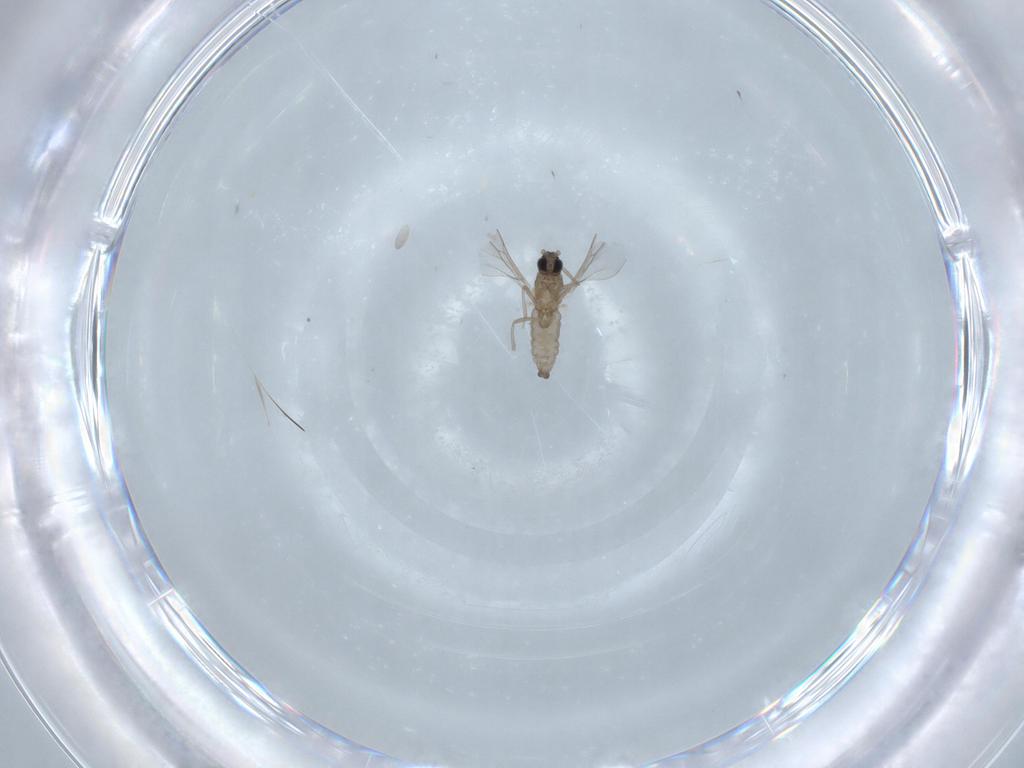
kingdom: Animalia
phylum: Arthropoda
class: Insecta
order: Diptera
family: Cecidomyiidae
